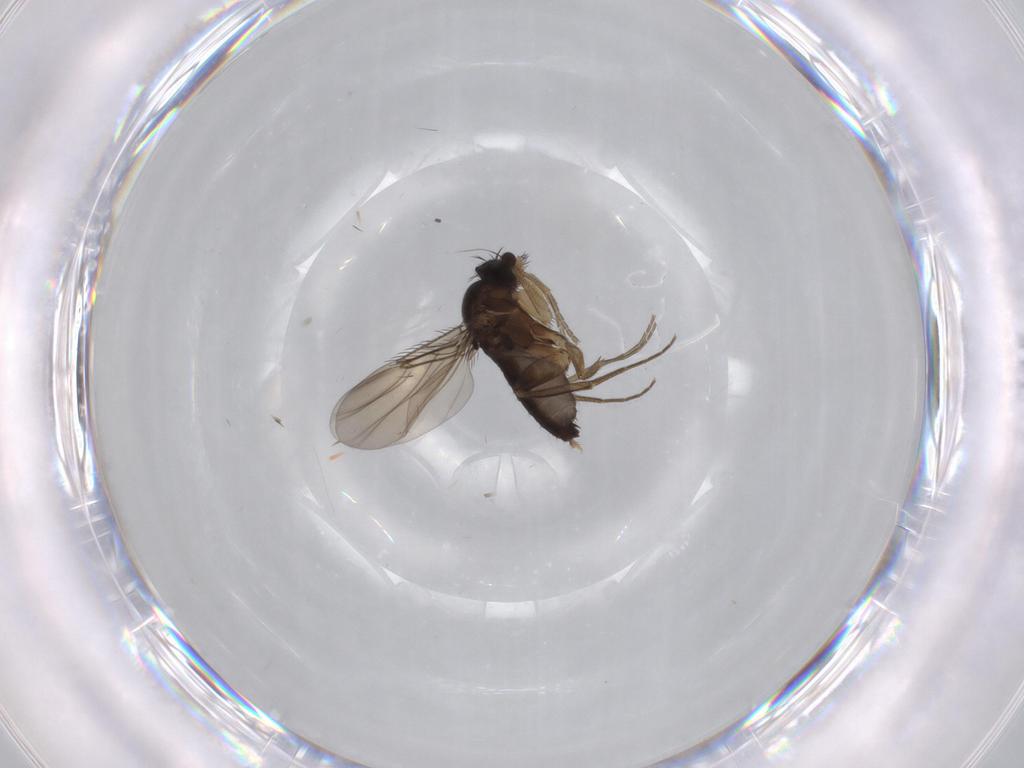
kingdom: Animalia
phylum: Arthropoda
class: Insecta
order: Diptera
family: Phoridae
